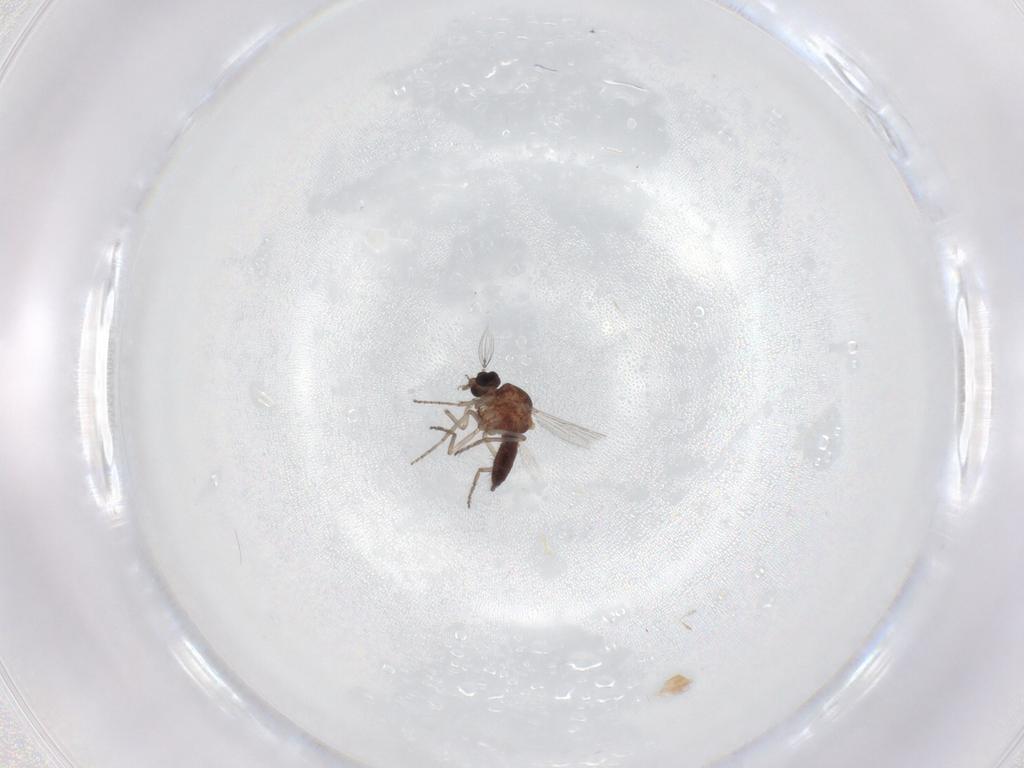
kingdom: Animalia
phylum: Arthropoda
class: Insecta
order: Diptera
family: Ceratopogonidae
